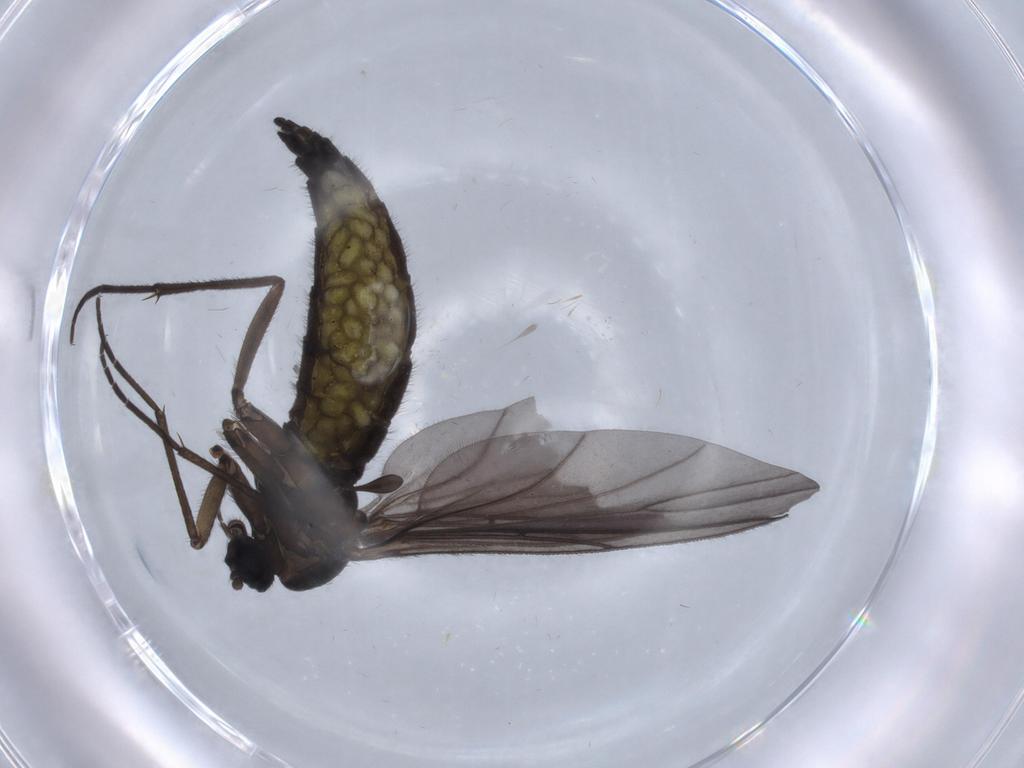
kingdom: Animalia
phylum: Arthropoda
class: Insecta
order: Diptera
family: Sciaridae
